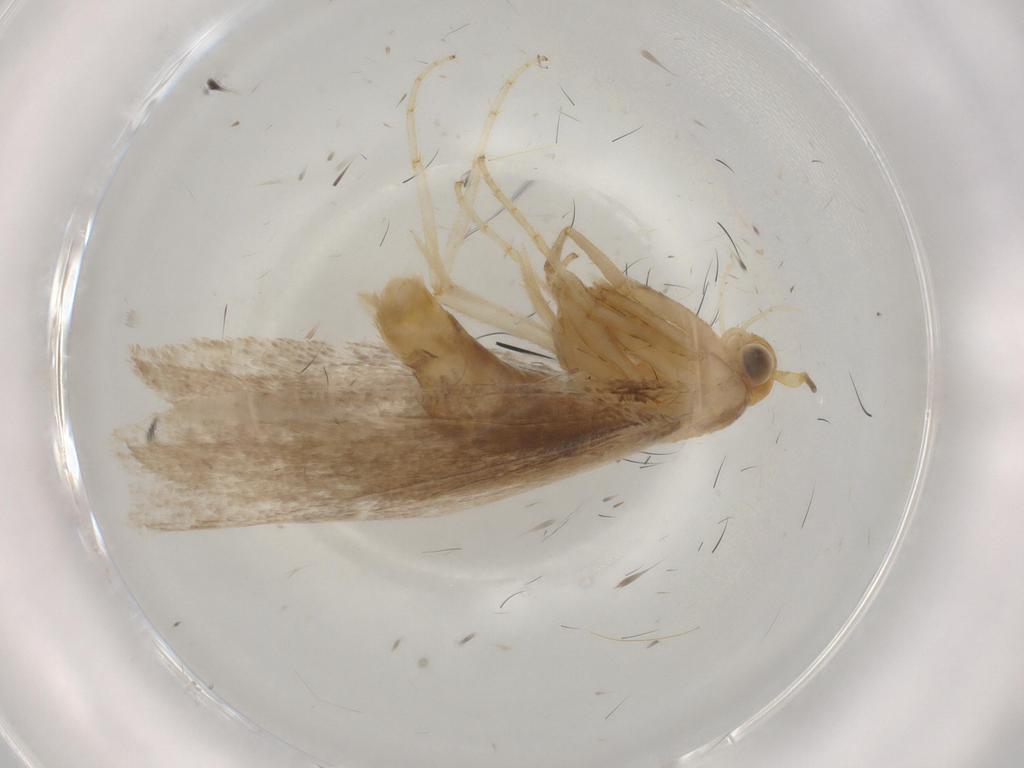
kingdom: Animalia
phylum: Arthropoda
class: Insecta
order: Lepidoptera
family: Argyresthiidae
